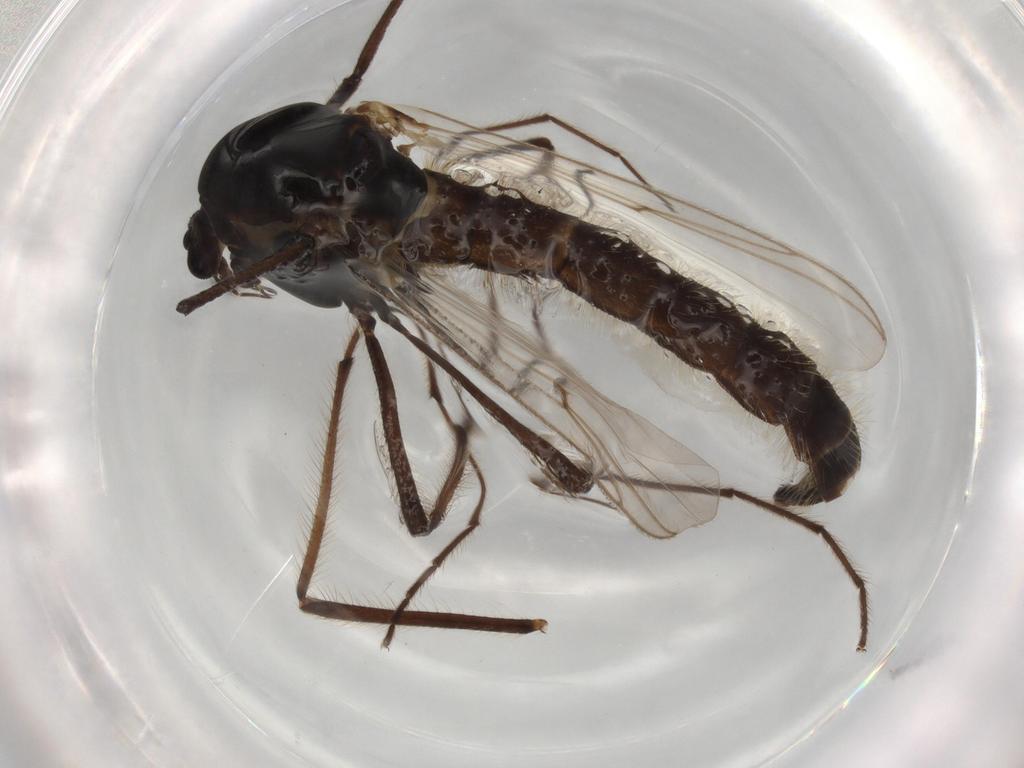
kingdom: Animalia
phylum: Arthropoda
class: Insecta
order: Diptera
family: Chironomidae
